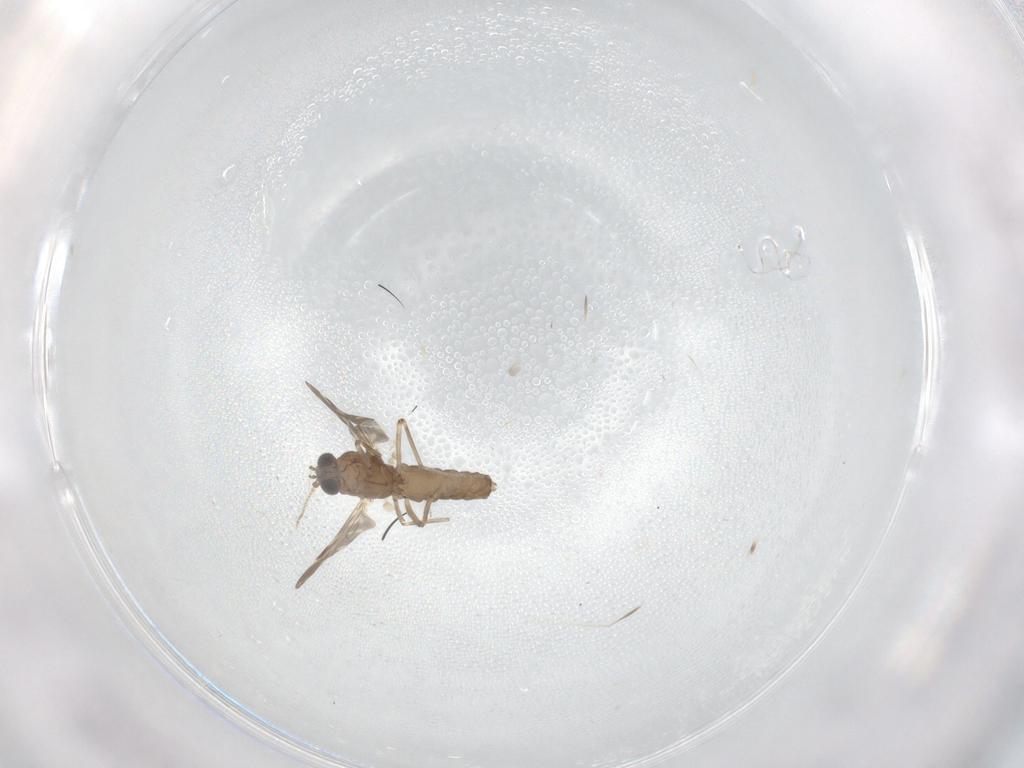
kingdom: Animalia
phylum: Arthropoda
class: Insecta
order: Diptera
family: Ceratopogonidae
